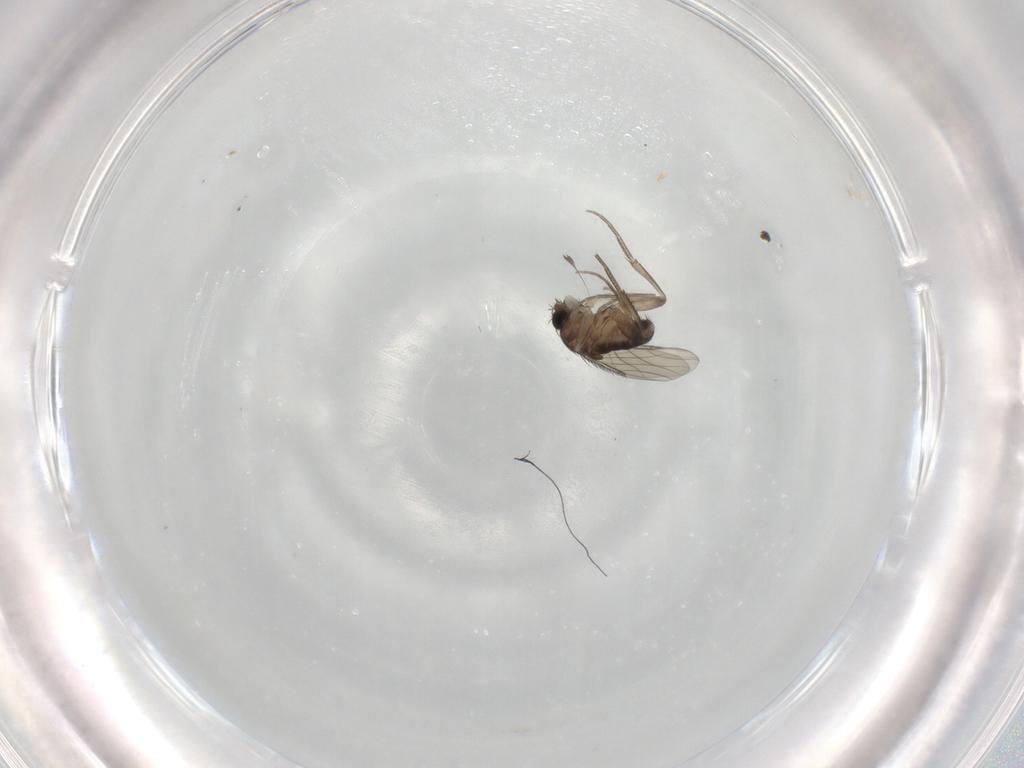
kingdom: Animalia
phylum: Arthropoda
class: Insecta
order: Diptera
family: Phoridae
